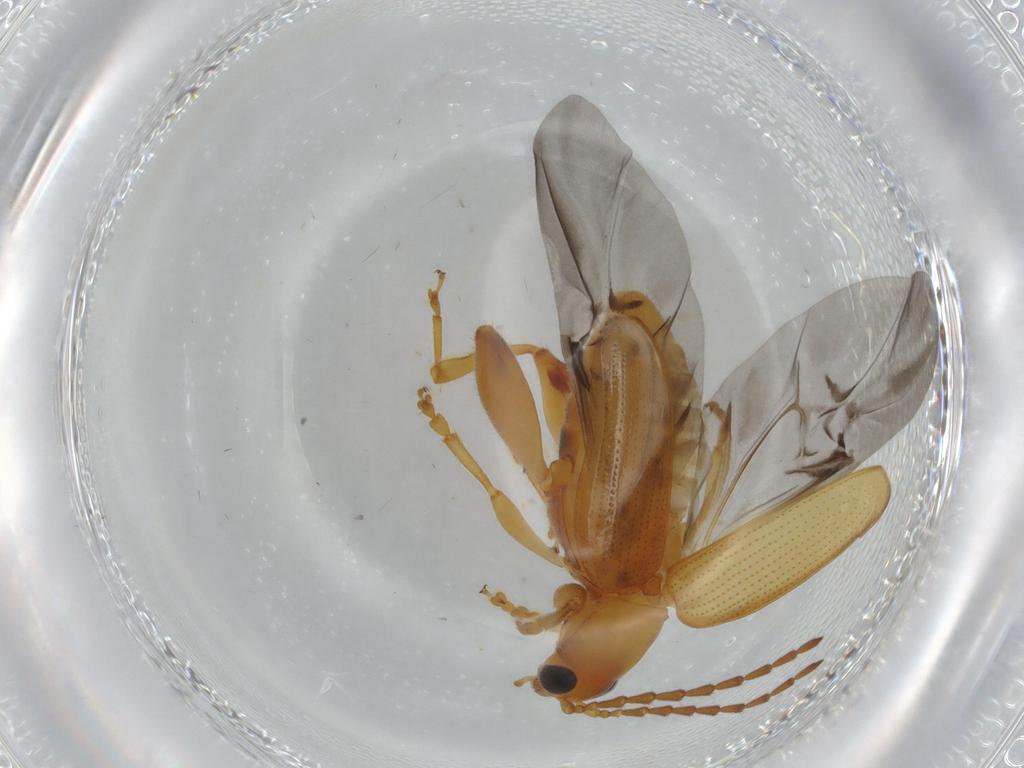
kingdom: Animalia
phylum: Arthropoda
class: Insecta
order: Coleoptera
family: Chrysomelidae
